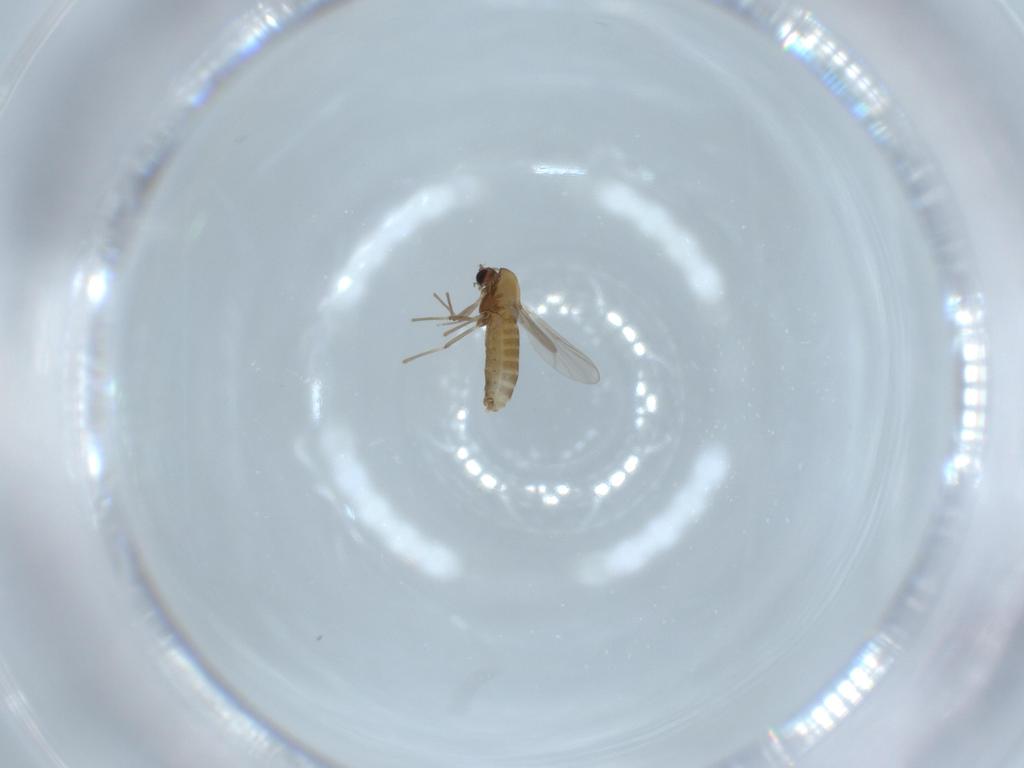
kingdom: Animalia
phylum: Arthropoda
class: Insecta
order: Diptera
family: Chironomidae
